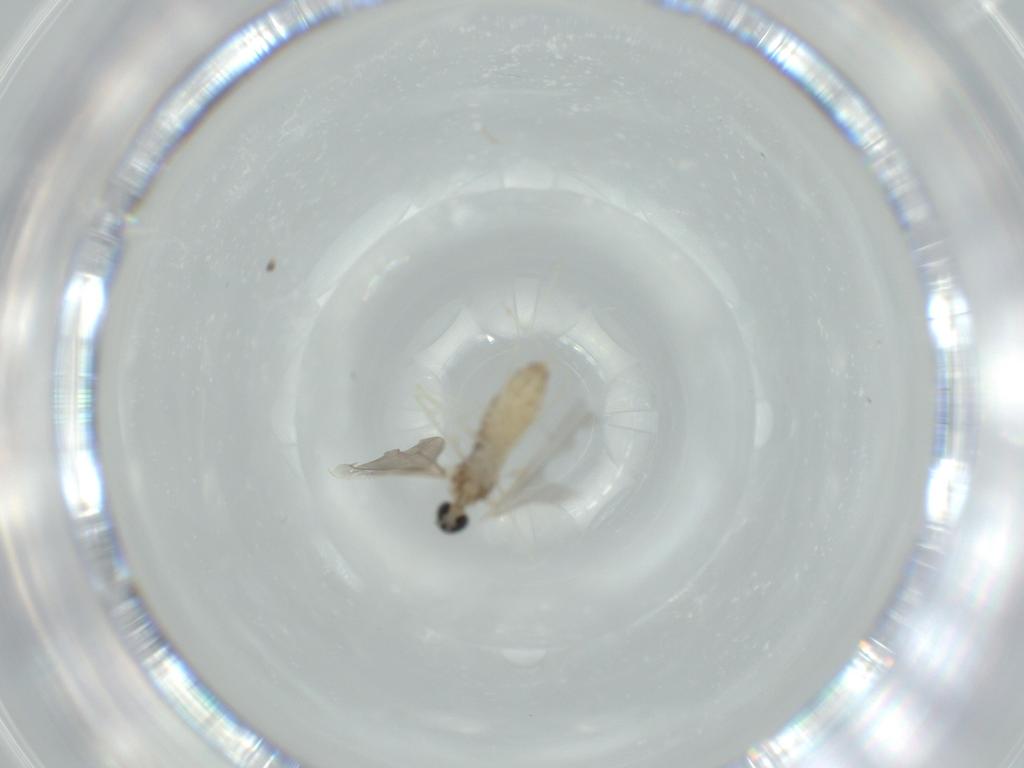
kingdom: Animalia
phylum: Arthropoda
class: Insecta
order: Diptera
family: Cecidomyiidae
